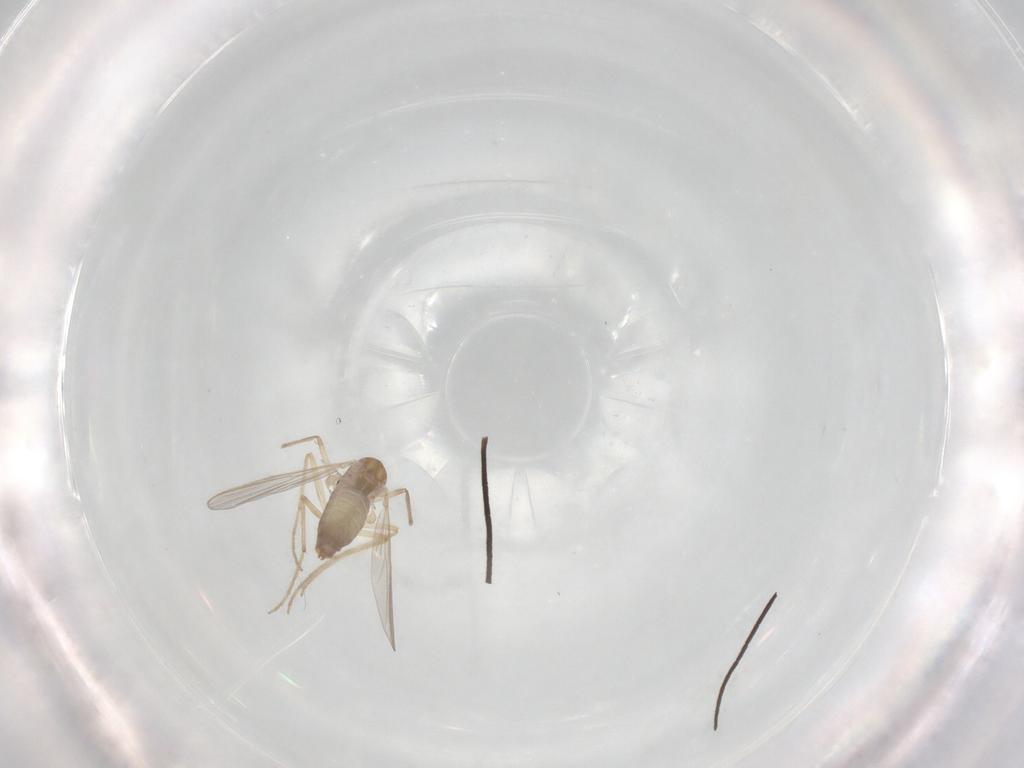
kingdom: Animalia
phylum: Arthropoda
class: Insecta
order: Diptera
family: Chironomidae
